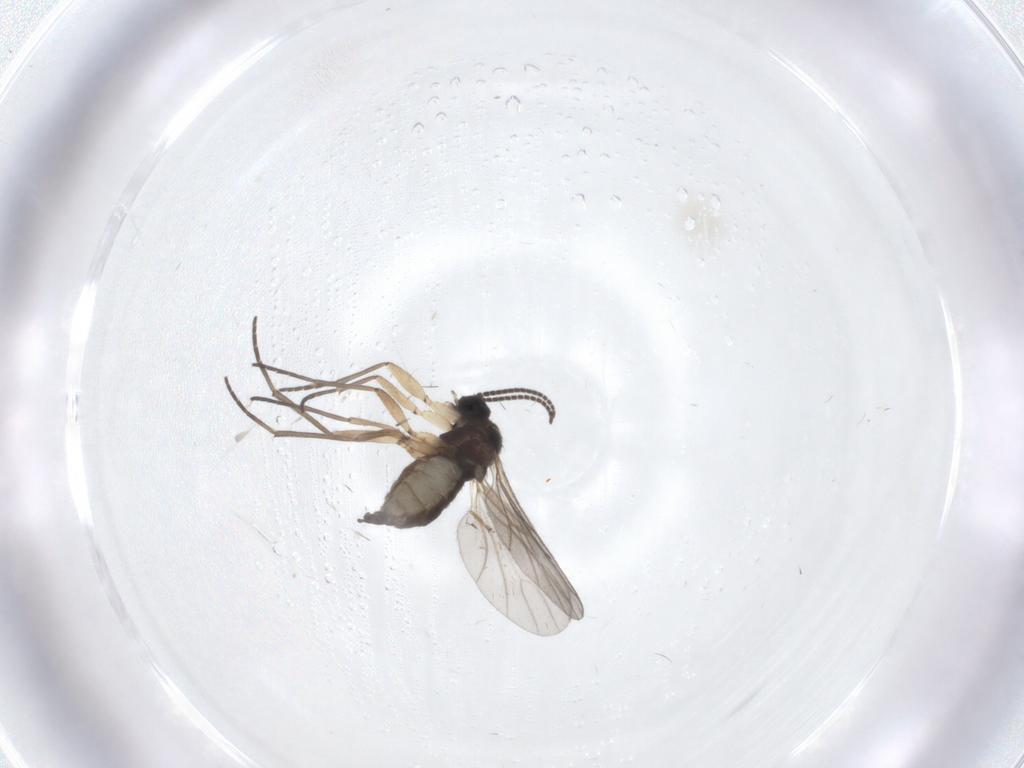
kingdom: Animalia
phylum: Arthropoda
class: Insecta
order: Diptera
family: Sciaridae
